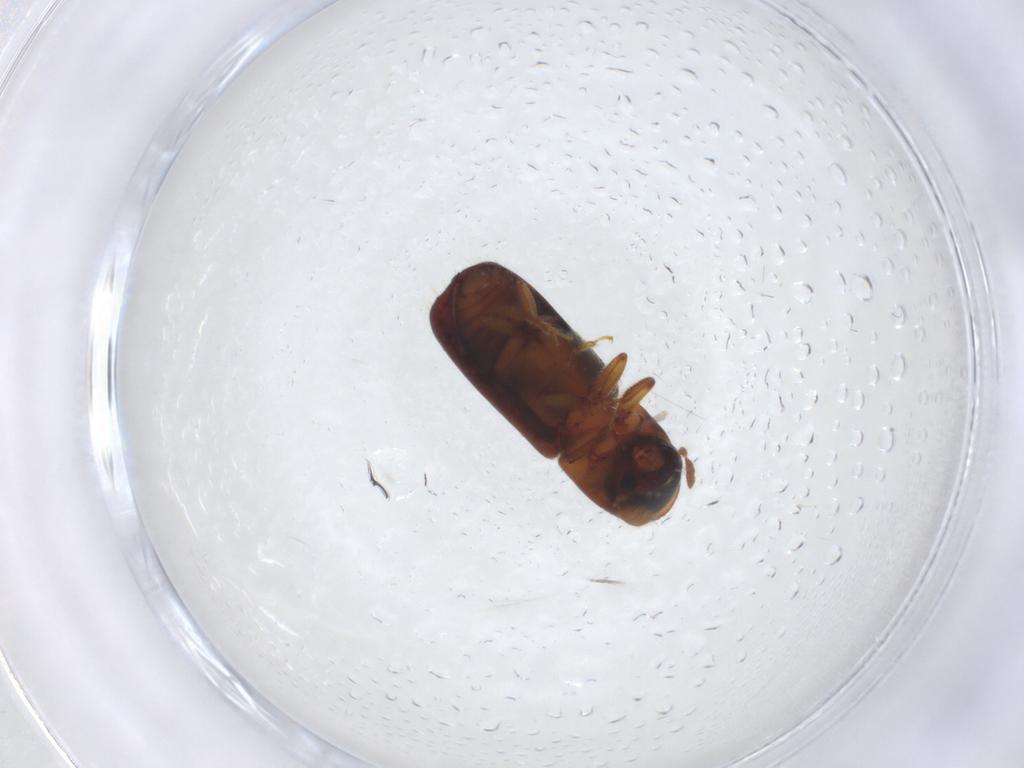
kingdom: Animalia
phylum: Arthropoda
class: Insecta
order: Coleoptera
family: Curculionidae
